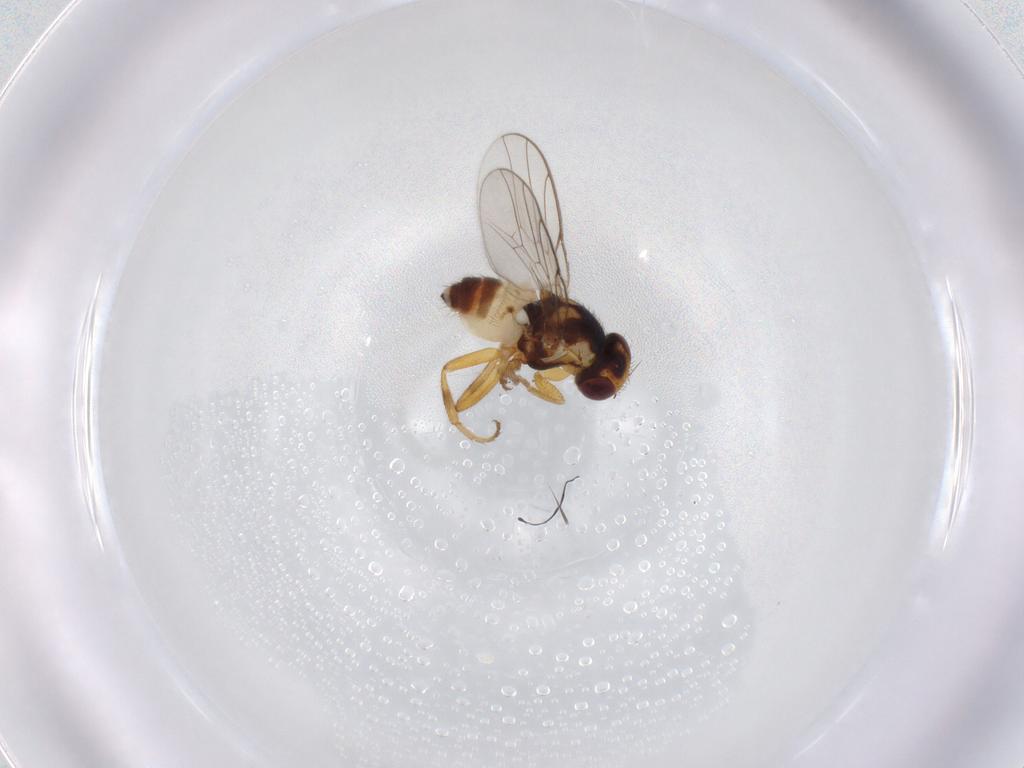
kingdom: Animalia
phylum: Arthropoda
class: Insecta
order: Diptera
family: Chloropidae
